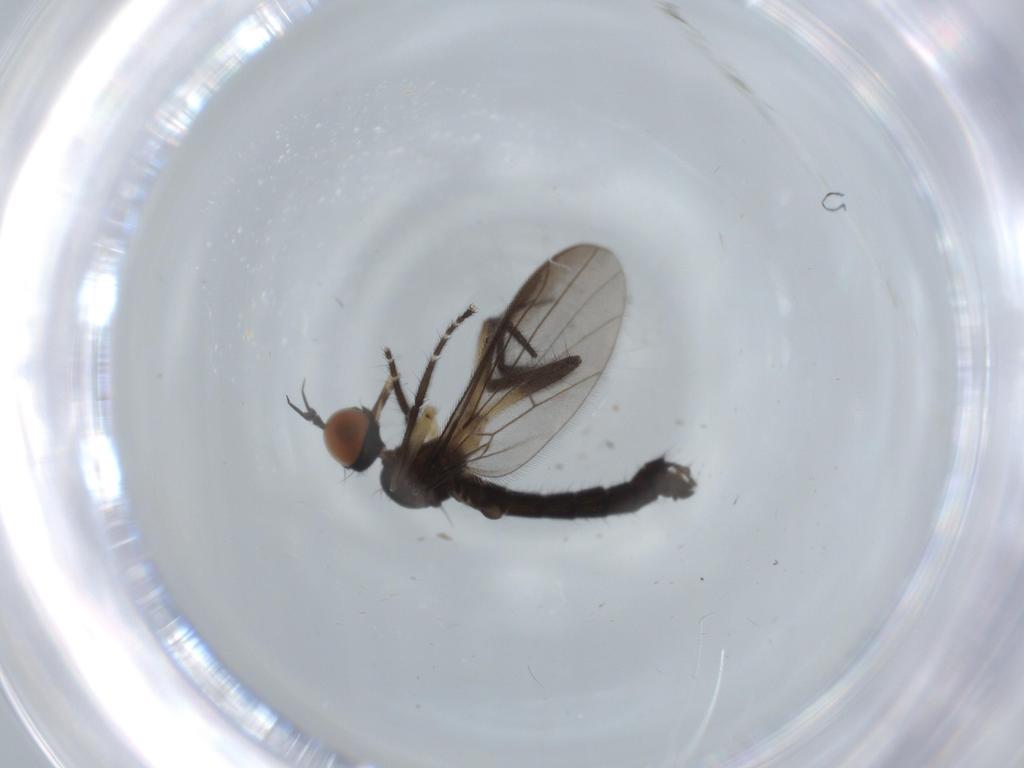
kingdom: Animalia
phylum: Arthropoda
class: Insecta
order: Diptera
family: Empididae
